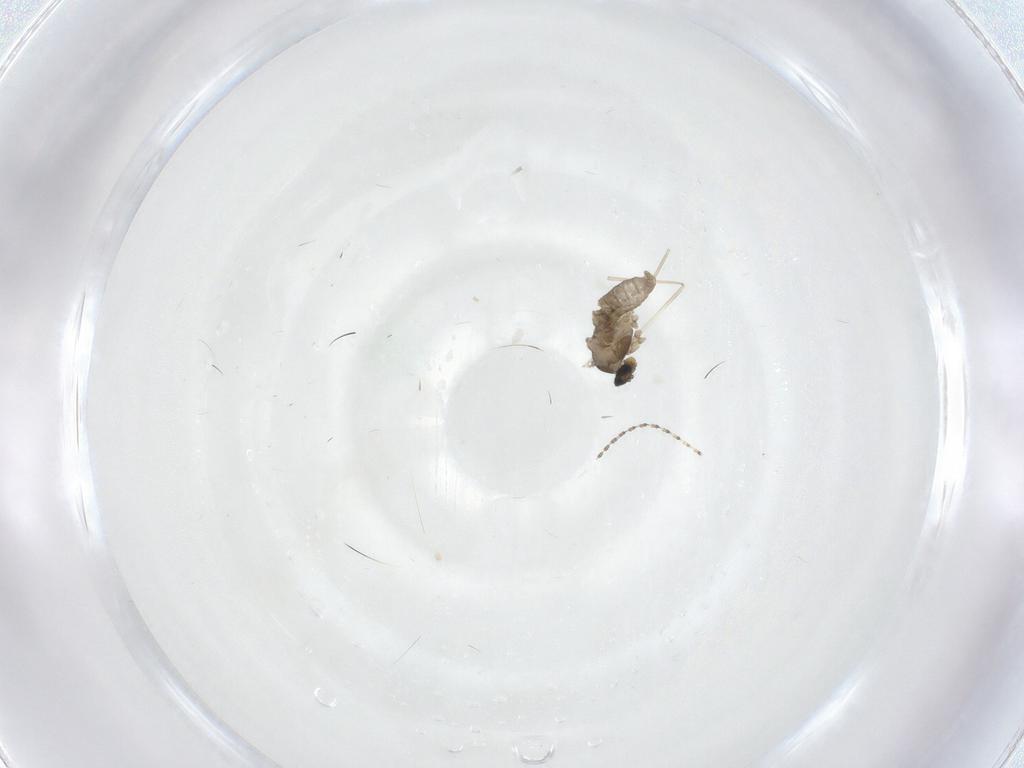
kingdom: Animalia
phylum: Arthropoda
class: Insecta
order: Diptera
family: Cecidomyiidae
